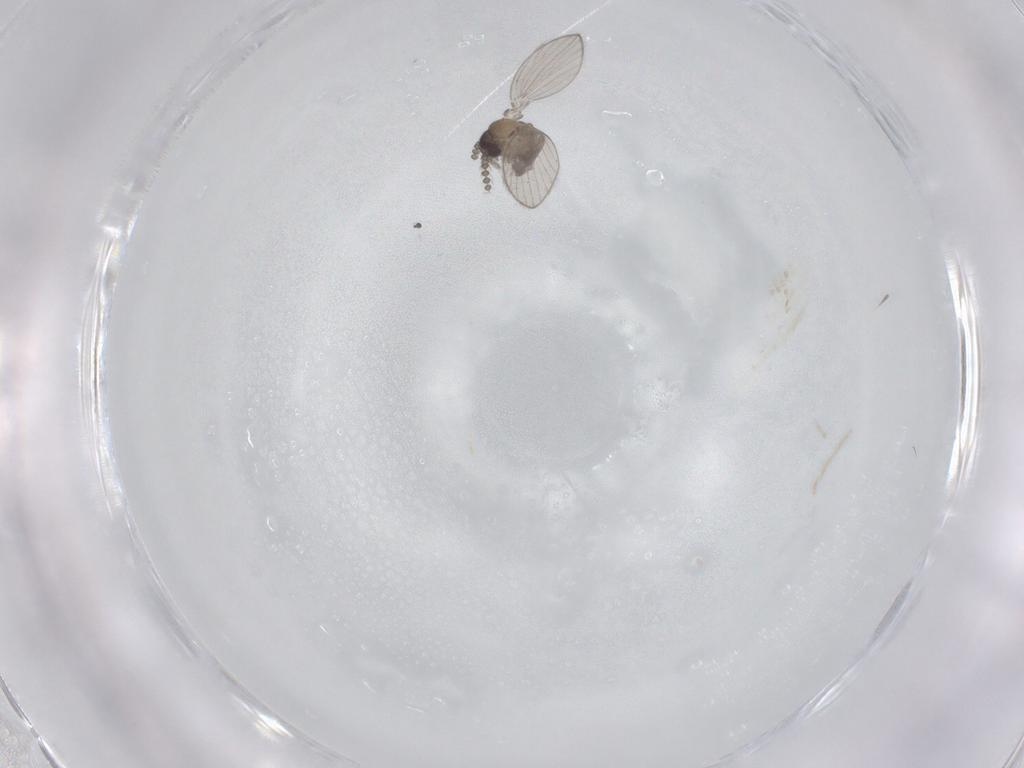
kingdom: Animalia
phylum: Arthropoda
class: Insecta
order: Diptera
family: Psychodidae
